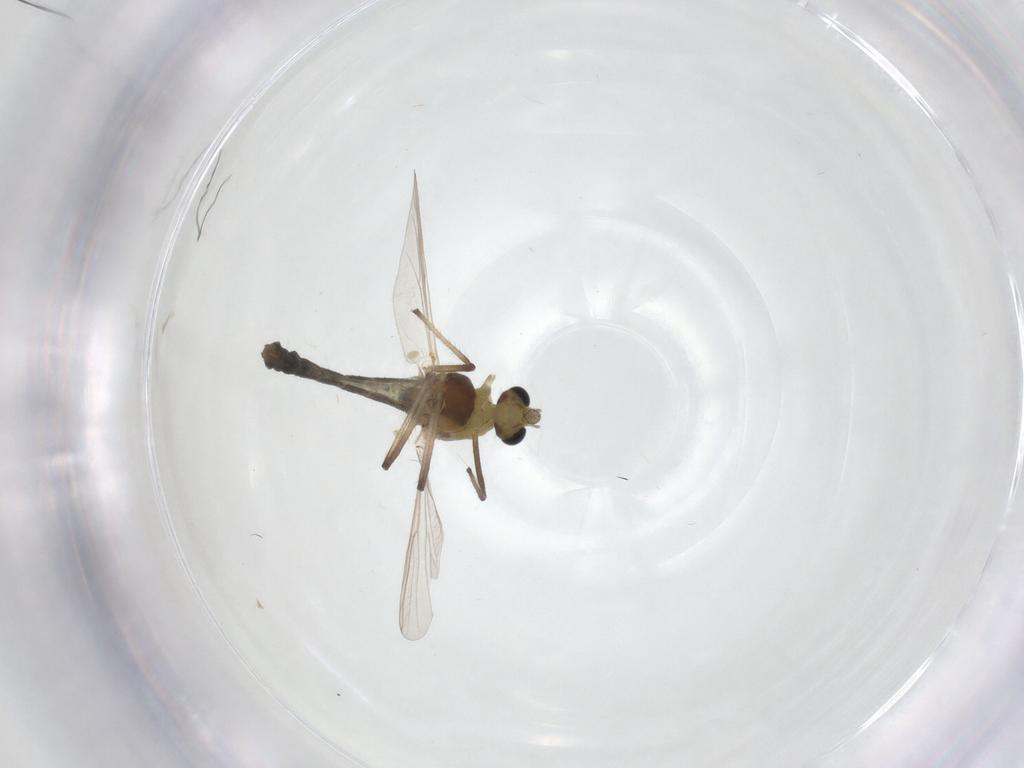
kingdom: Animalia
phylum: Arthropoda
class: Insecta
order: Diptera
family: Chironomidae
